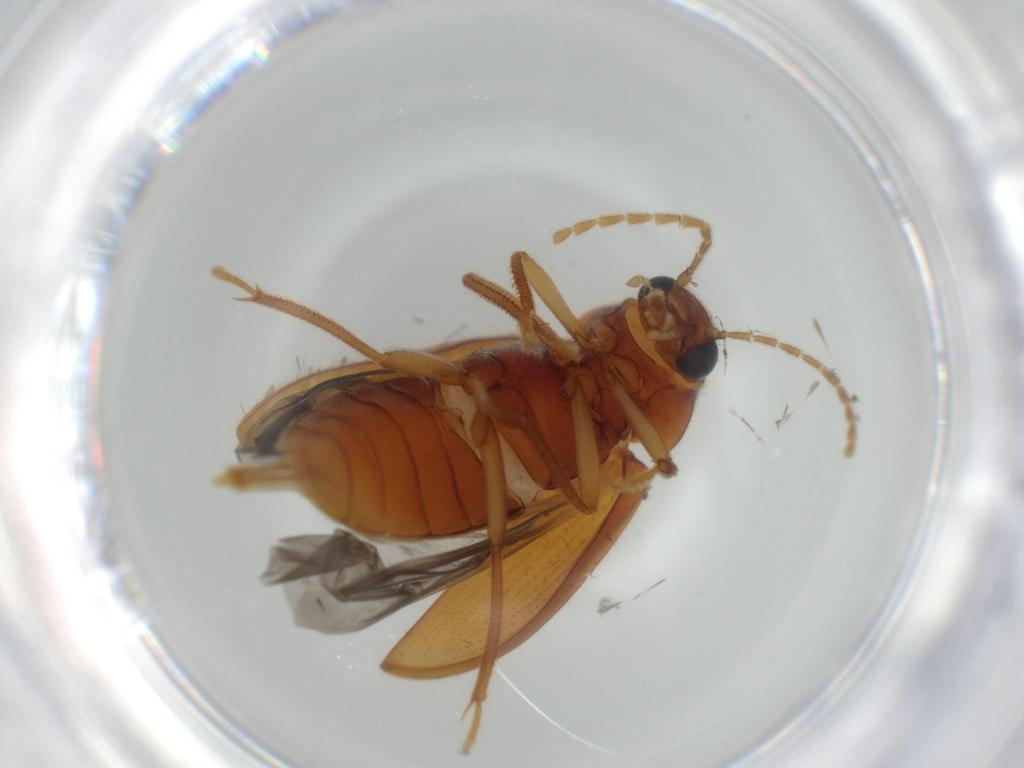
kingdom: Animalia
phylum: Arthropoda
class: Insecta
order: Coleoptera
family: Ptilodactylidae
